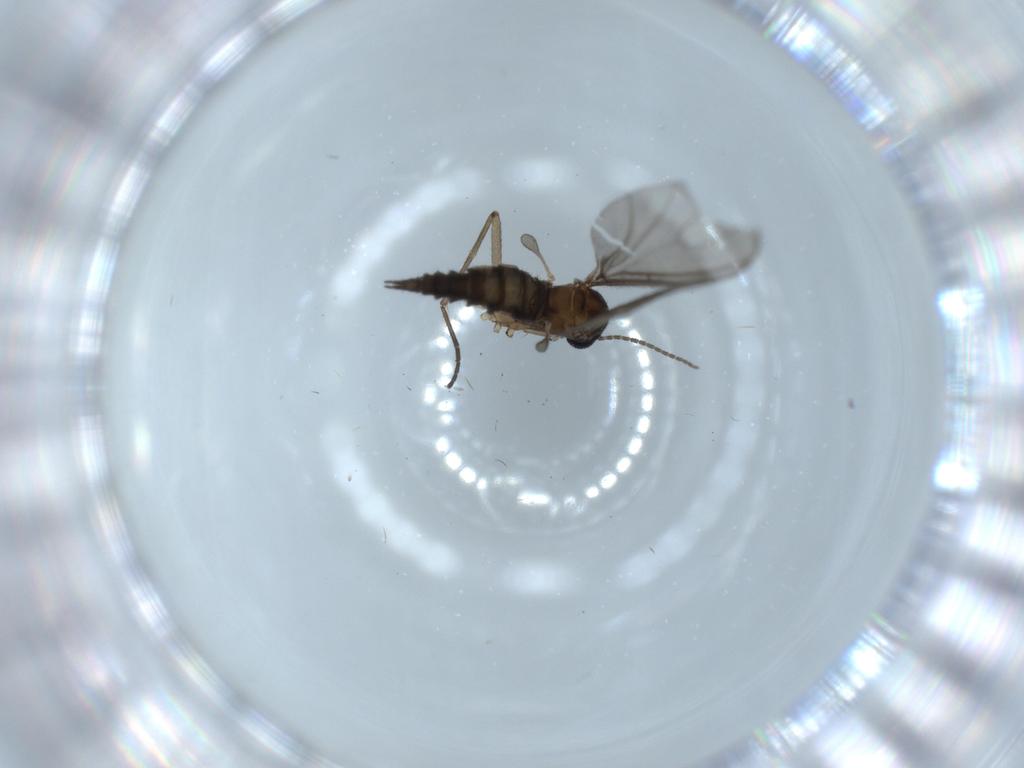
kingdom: Animalia
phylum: Arthropoda
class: Insecta
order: Diptera
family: Sciaridae
